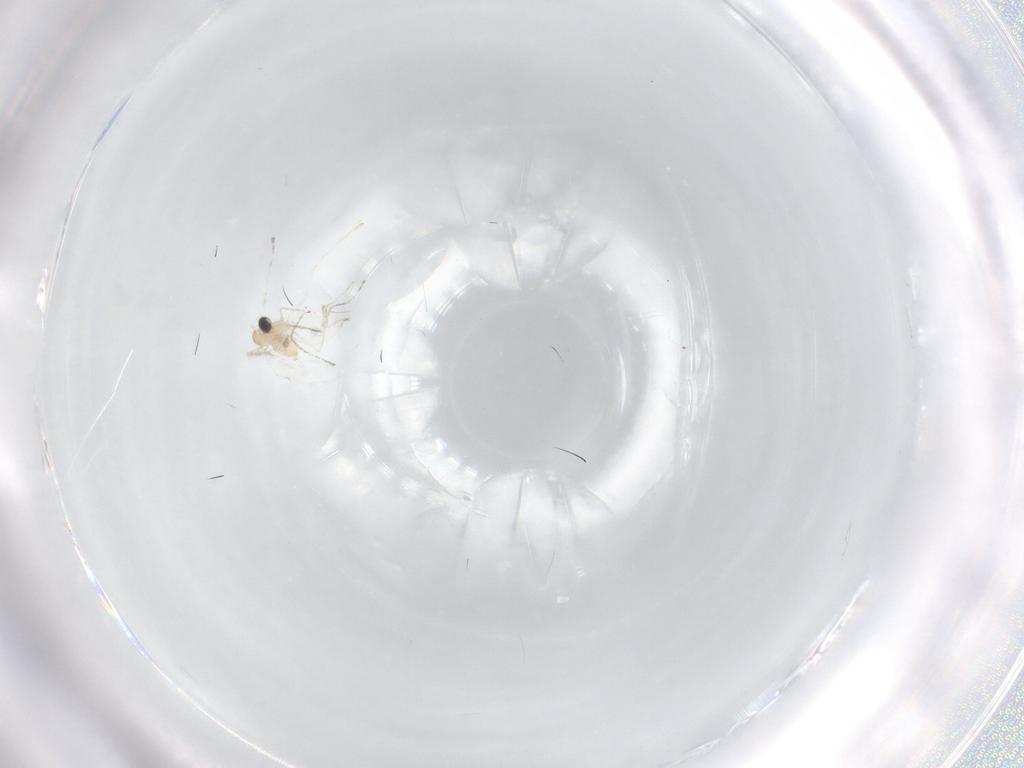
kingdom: Animalia
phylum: Arthropoda
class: Insecta
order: Diptera
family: Cecidomyiidae
